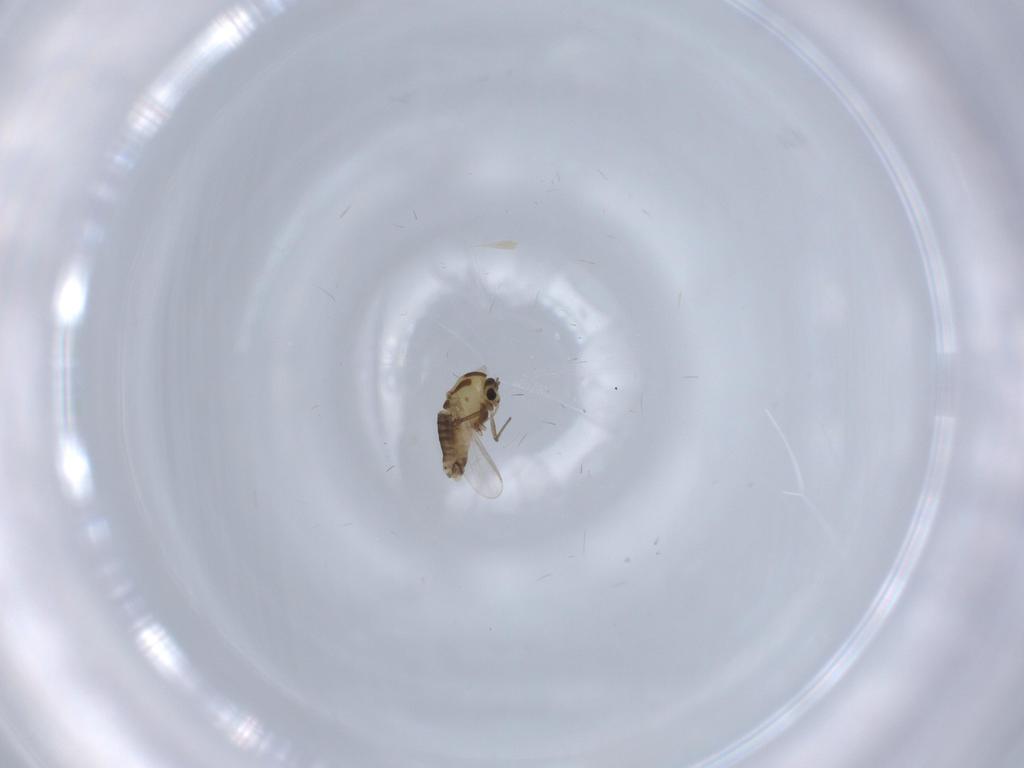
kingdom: Animalia
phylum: Arthropoda
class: Insecta
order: Diptera
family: Chironomidae
